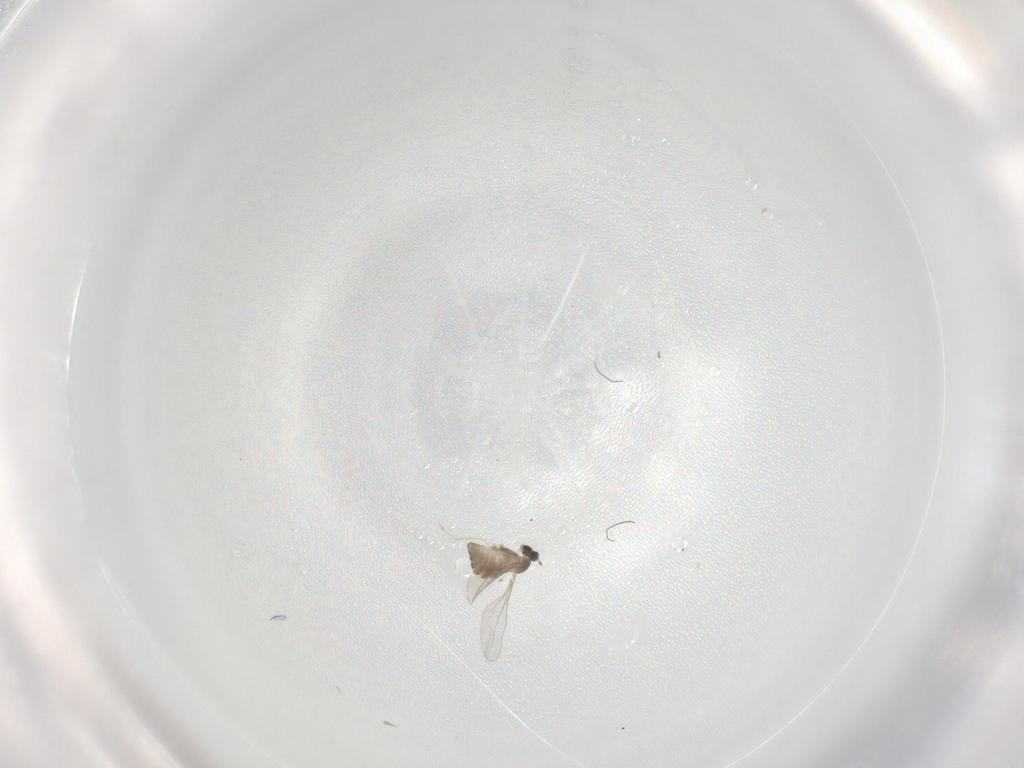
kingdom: Animalia
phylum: Arthropoda
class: Insecta
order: Diptera
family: Cecidomyiidae
